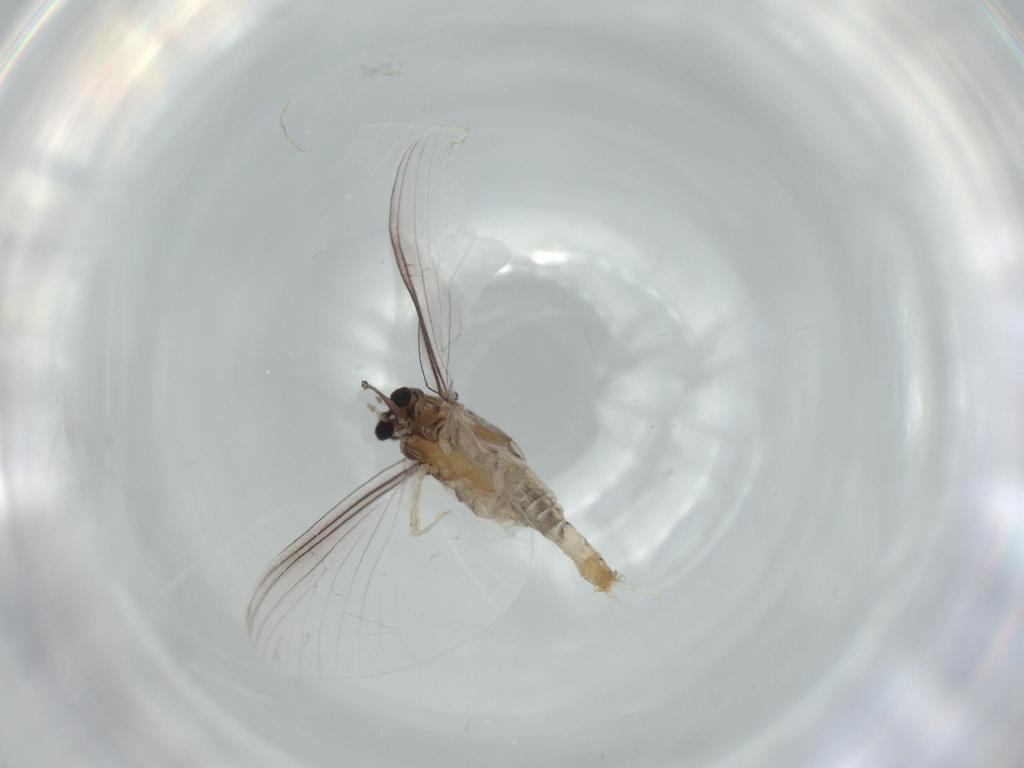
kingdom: Animalia
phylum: Arthropoda
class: Insecta
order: Ephemeroptera
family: Caenidae
